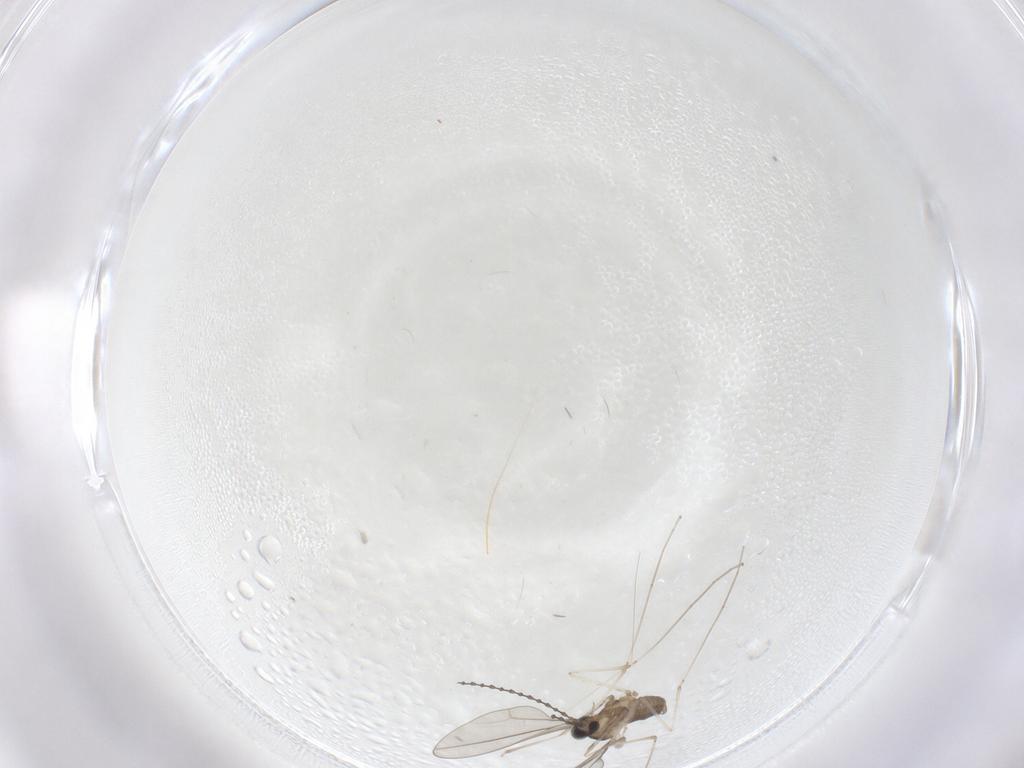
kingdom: Animalia
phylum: Arthropoda
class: Insecta
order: Diptera
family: Cecidomyiidae
